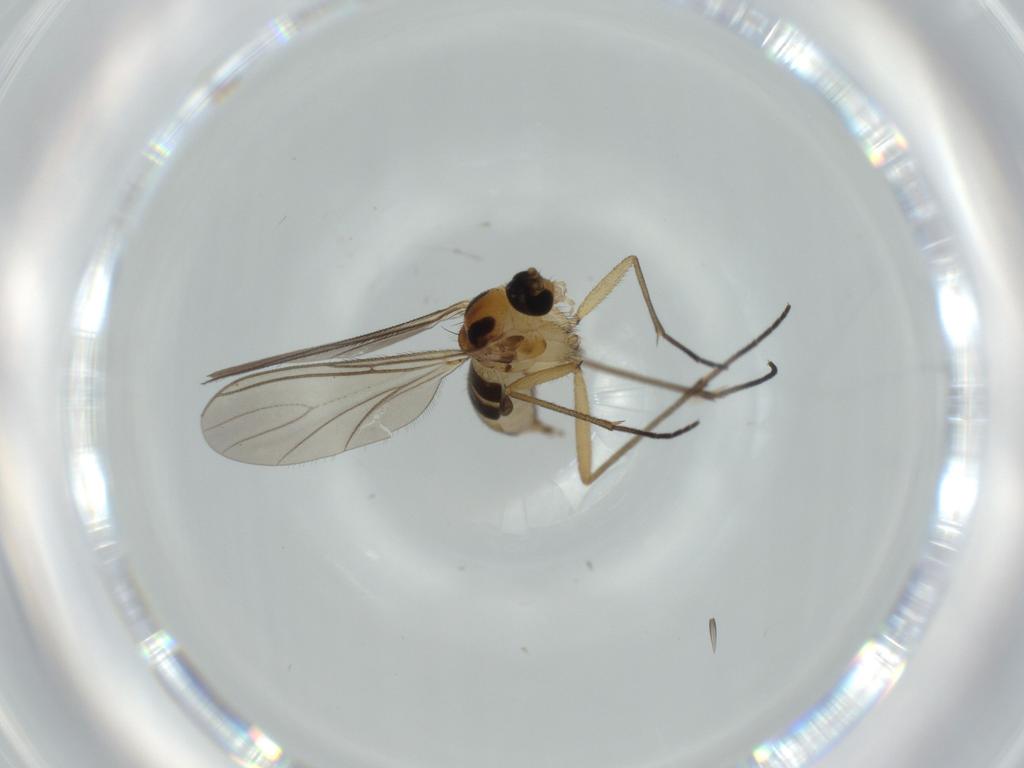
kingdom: Animalia
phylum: Arthropoda
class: Insecta
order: Diptera
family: Sciaridae
